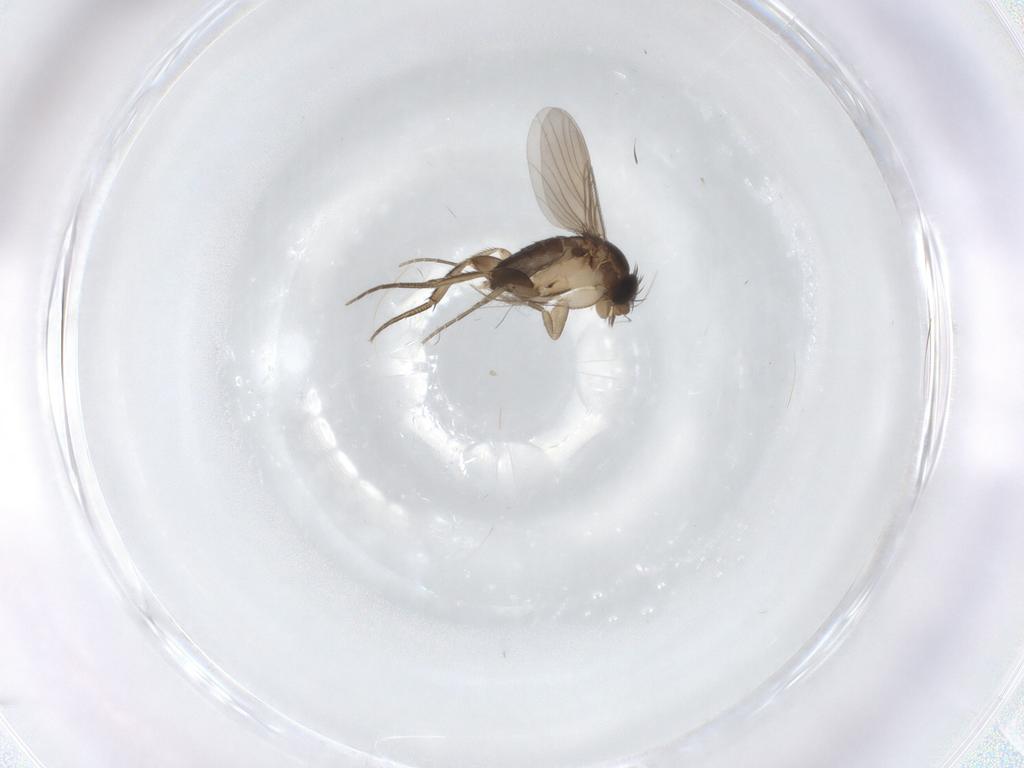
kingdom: Animalia
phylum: Arthropoda
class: Insecta
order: Diptera
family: Phoridae
